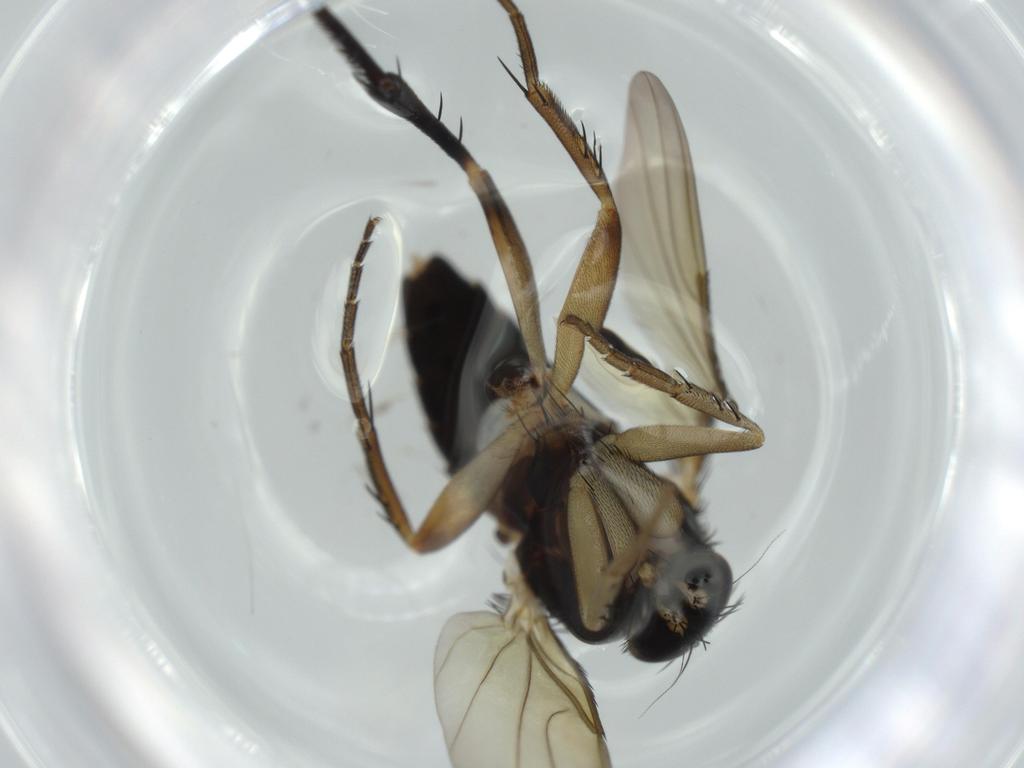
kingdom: Animalia
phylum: Arthropoda
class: Insecta
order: Diptera
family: Phoridae
